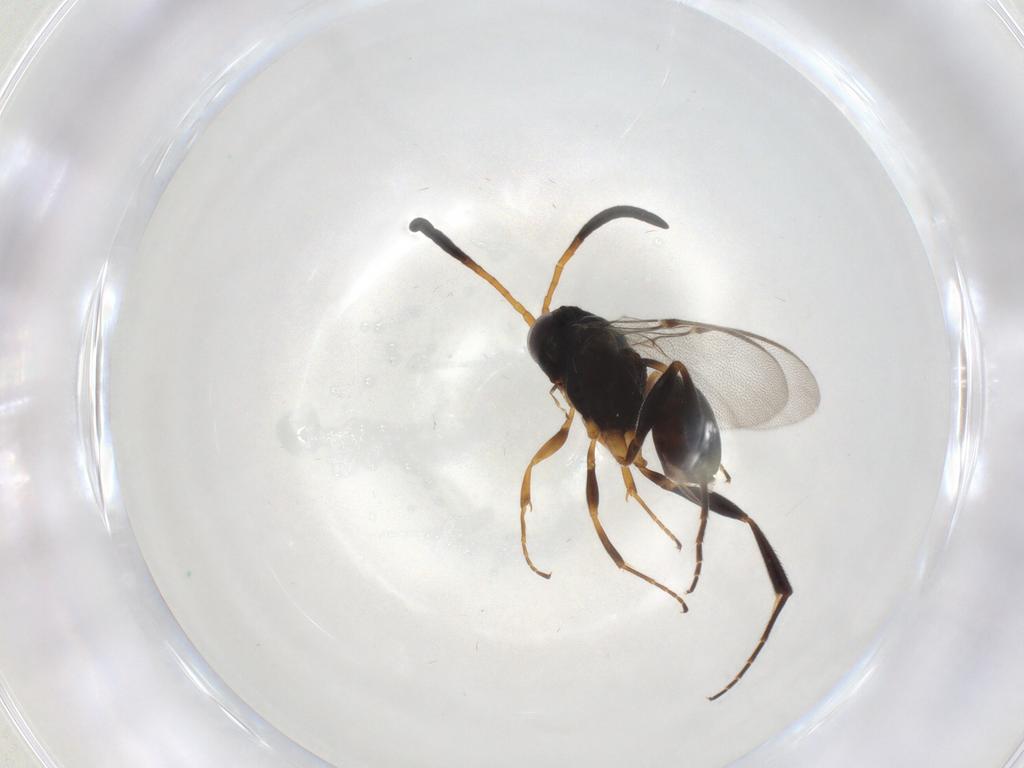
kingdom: Animalia
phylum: Arthropoda
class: Insecta
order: Hymenoptera
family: Evaniidae
